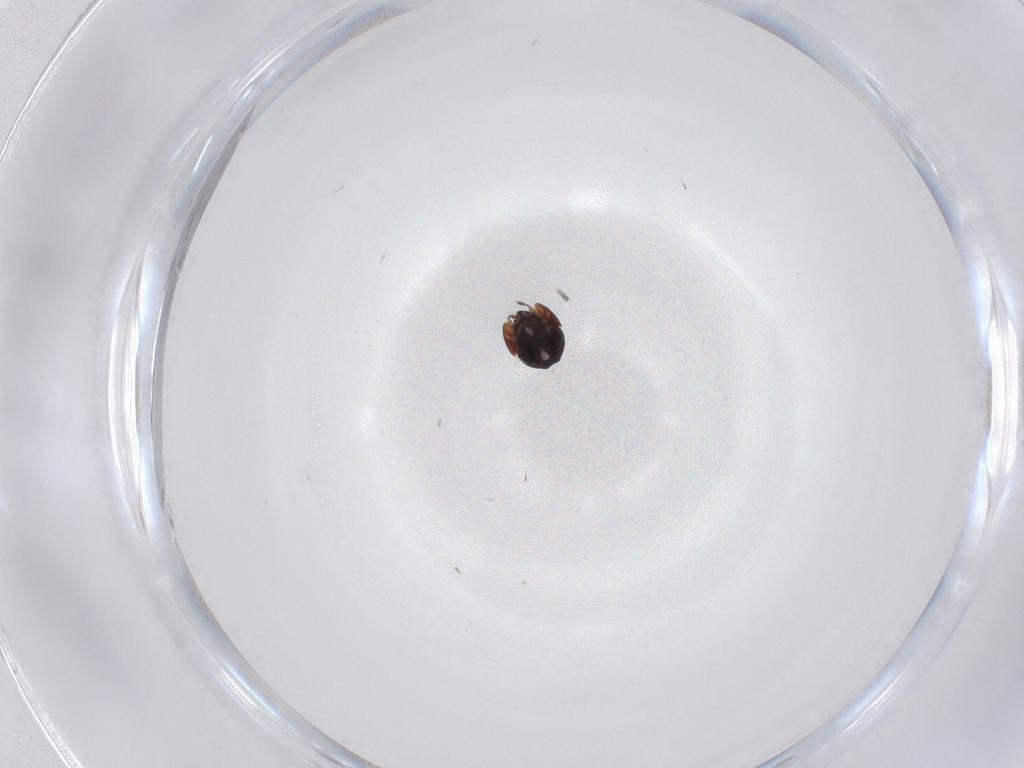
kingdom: Animalia
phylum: Arthropoda
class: Arachnida
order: Sarcoptiformes
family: Galumnidae
